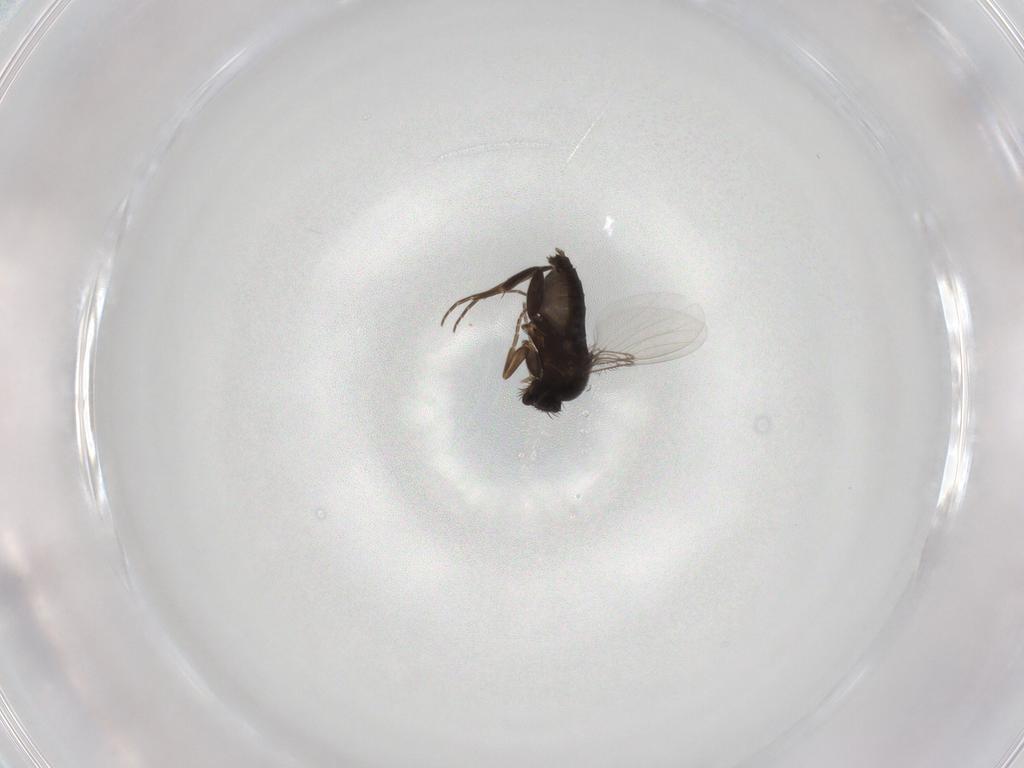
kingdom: Animalia
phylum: Arthropoda
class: Insecta
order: Diptera
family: Phoridae
